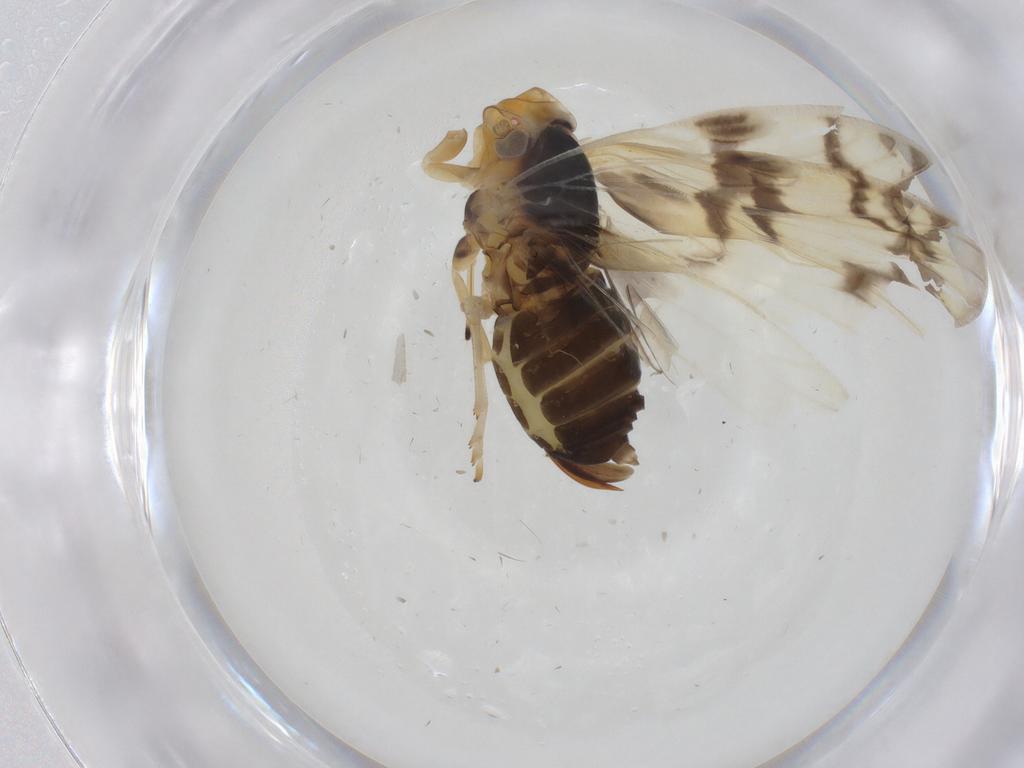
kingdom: Animalia
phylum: Arthropoda
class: Insecta
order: Hemiptera
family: Cixiidae
